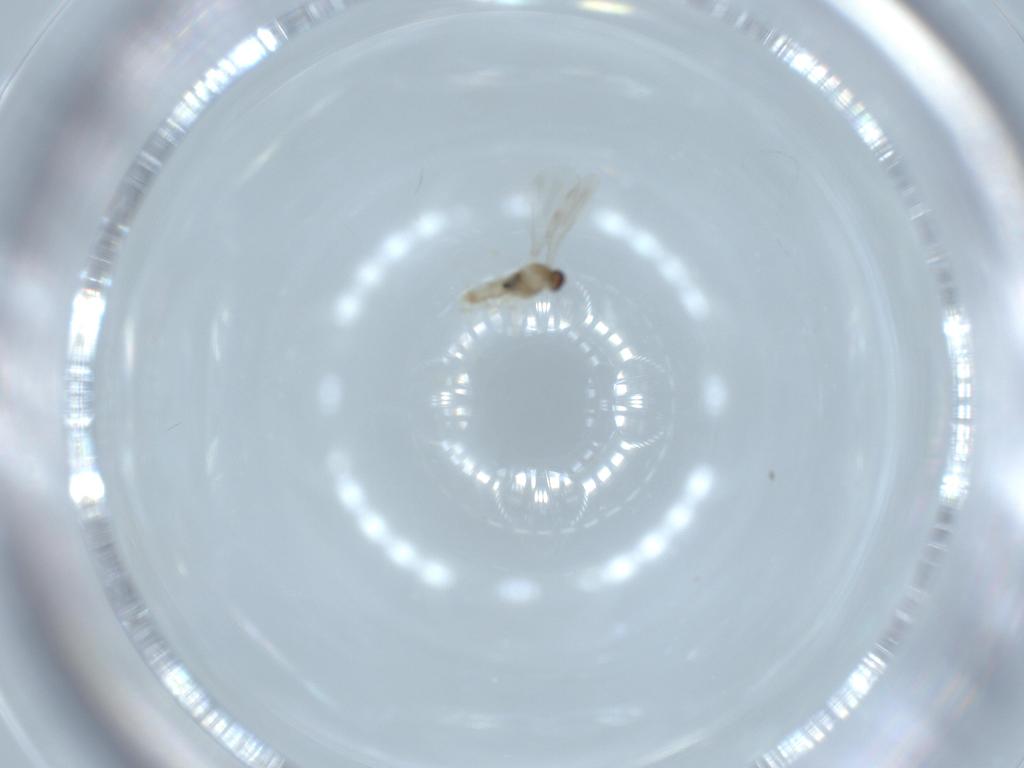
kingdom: Animalia
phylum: Arthropoda
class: Insecta
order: Diptera
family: Cecidomyiidae
